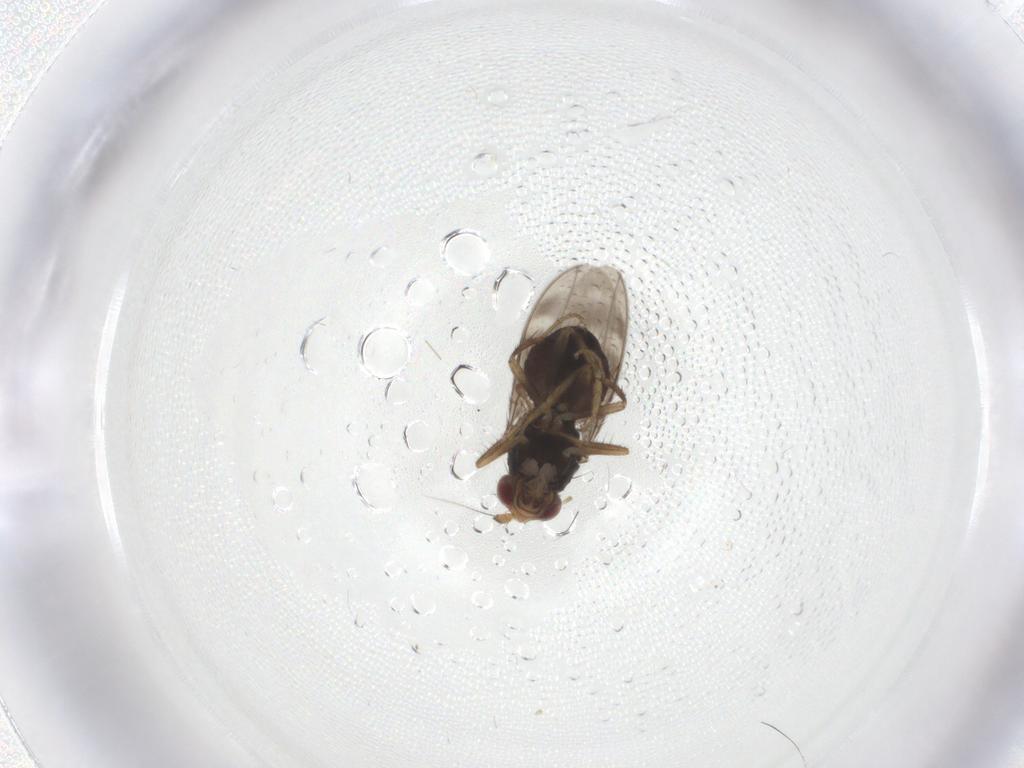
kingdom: Animalia
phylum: Arthropoda
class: Insecta
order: Diptera
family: Sphaeroceridae
